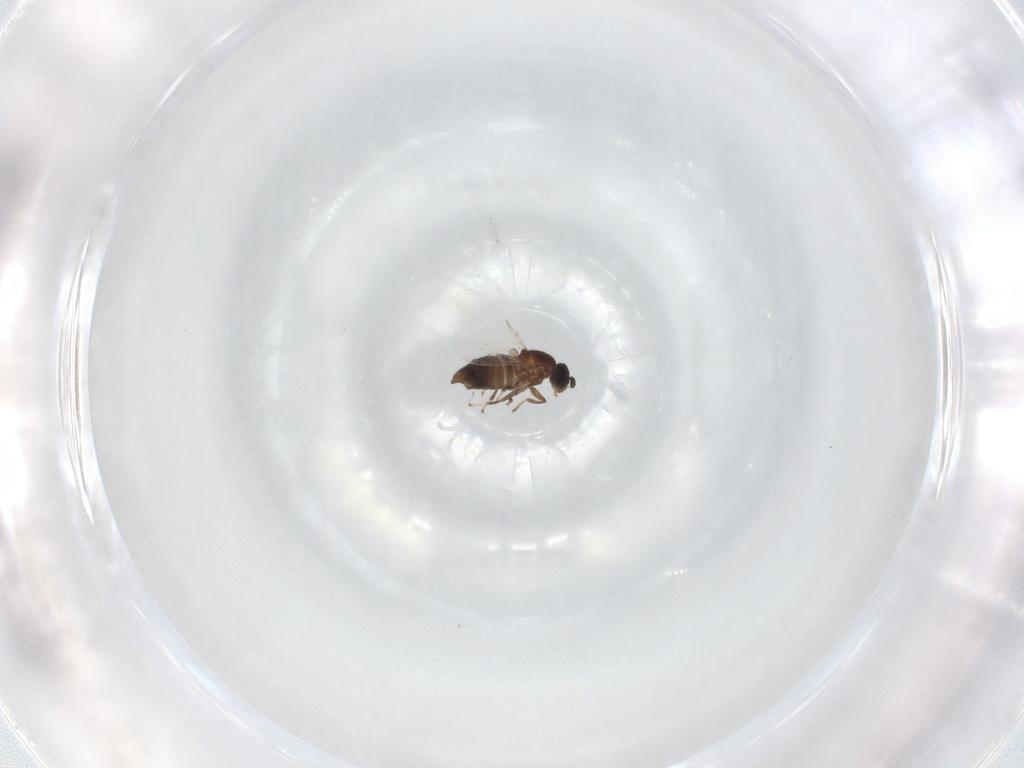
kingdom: Animalia
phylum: Arthropoda
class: Insecta
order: Diptera
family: Scatopsidae
